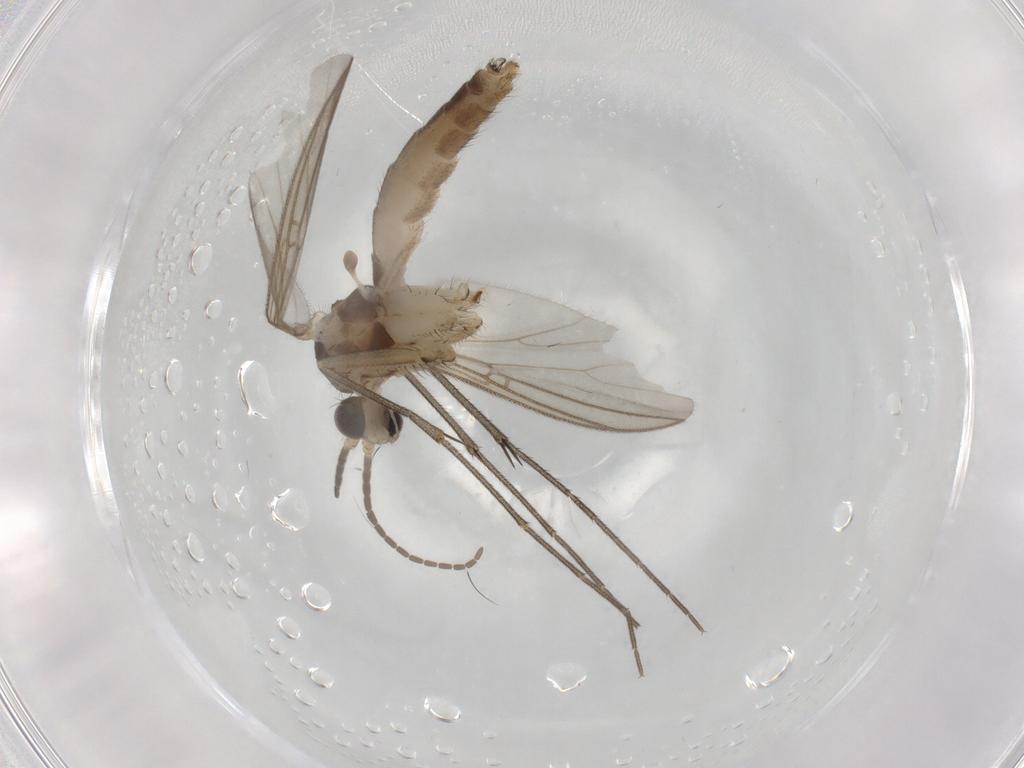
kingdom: Animalia
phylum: Arthropoda
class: Insecta
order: Diptera
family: Mycetophilidae
